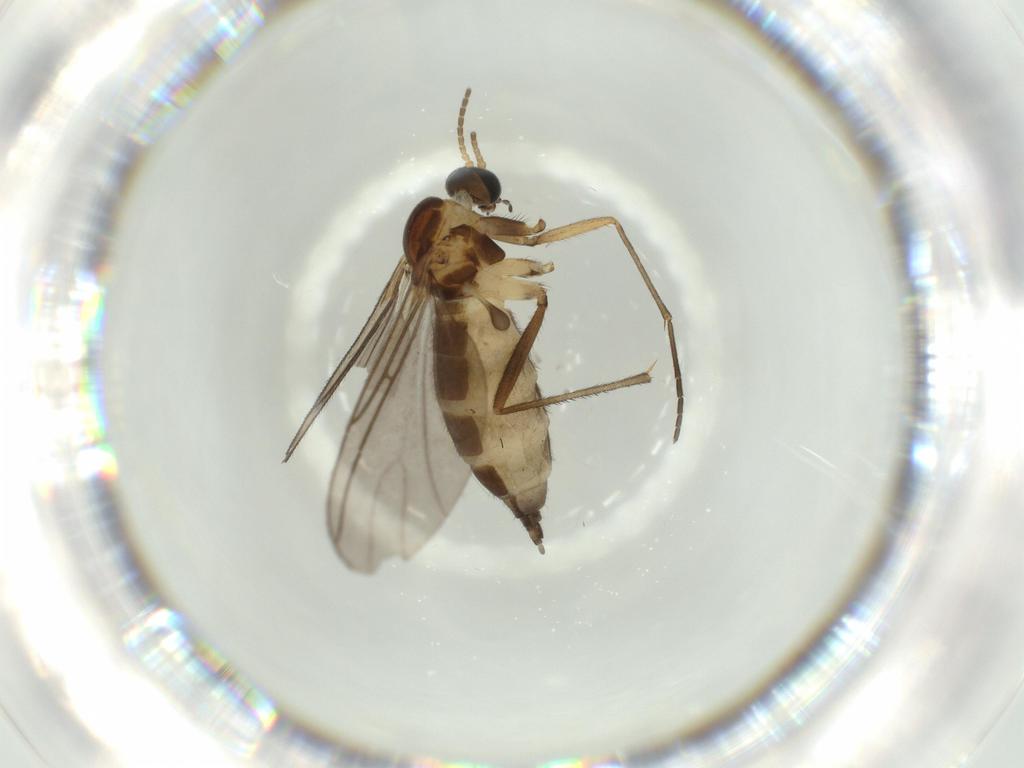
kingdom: Animalia
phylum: Arthropoda
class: Insecta
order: Diptera
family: Sciaridae
